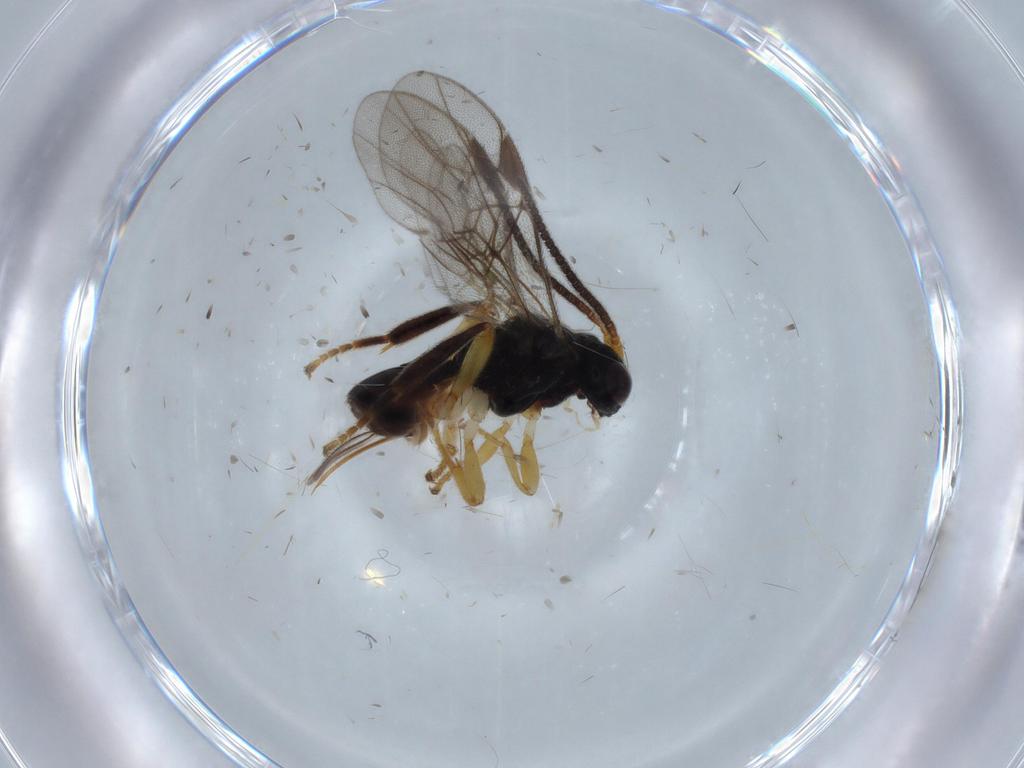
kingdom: Animalia
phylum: Arthropoda
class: Insecta
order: Hymenoptera
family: Braconidae
